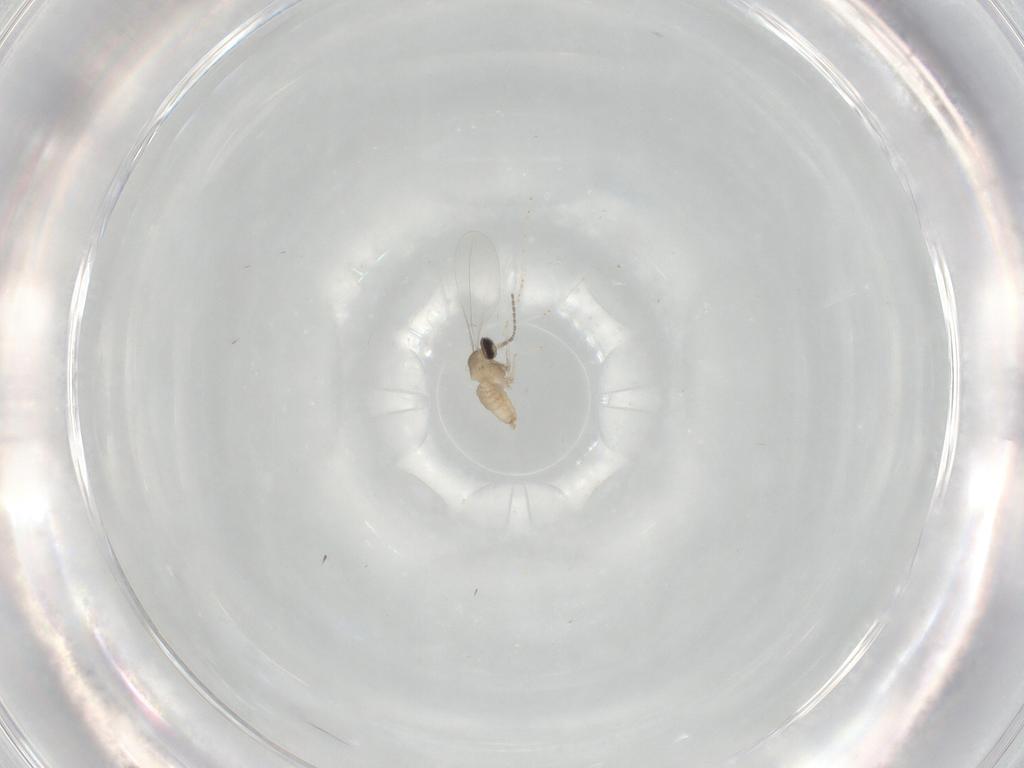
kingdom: Animalia
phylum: Arthropoda
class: Insecta
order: Diptera
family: Cecidomyiidae
